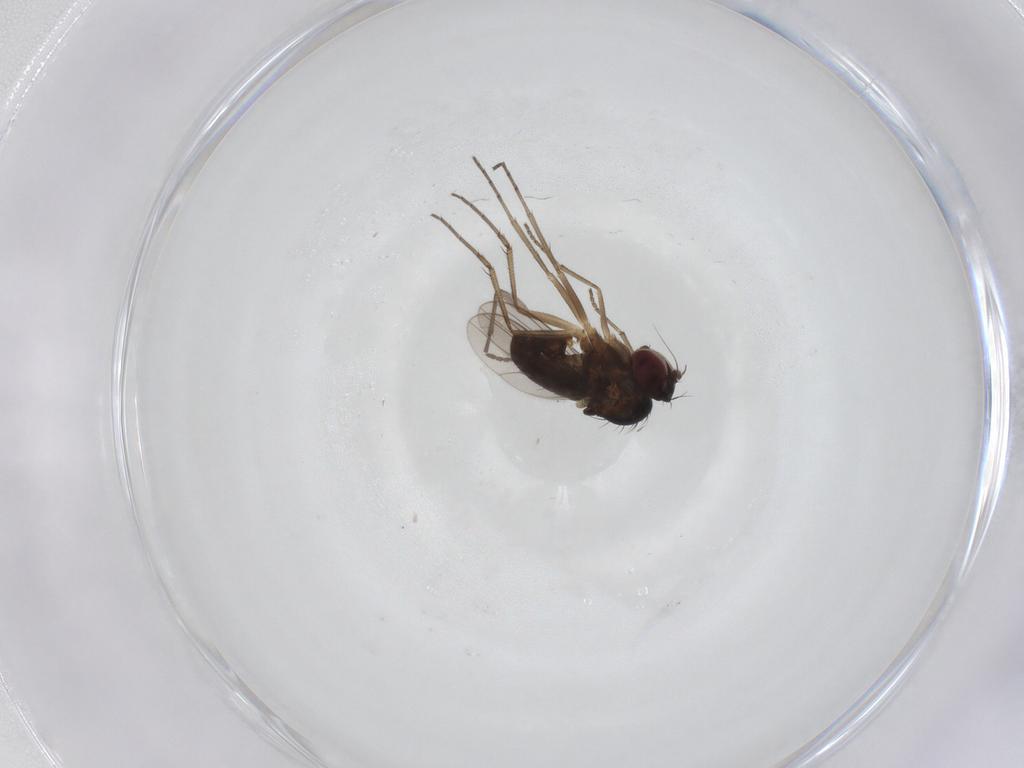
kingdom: Animalia
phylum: Arthropoda
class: Insecta
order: Diptera
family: Sciaridae
